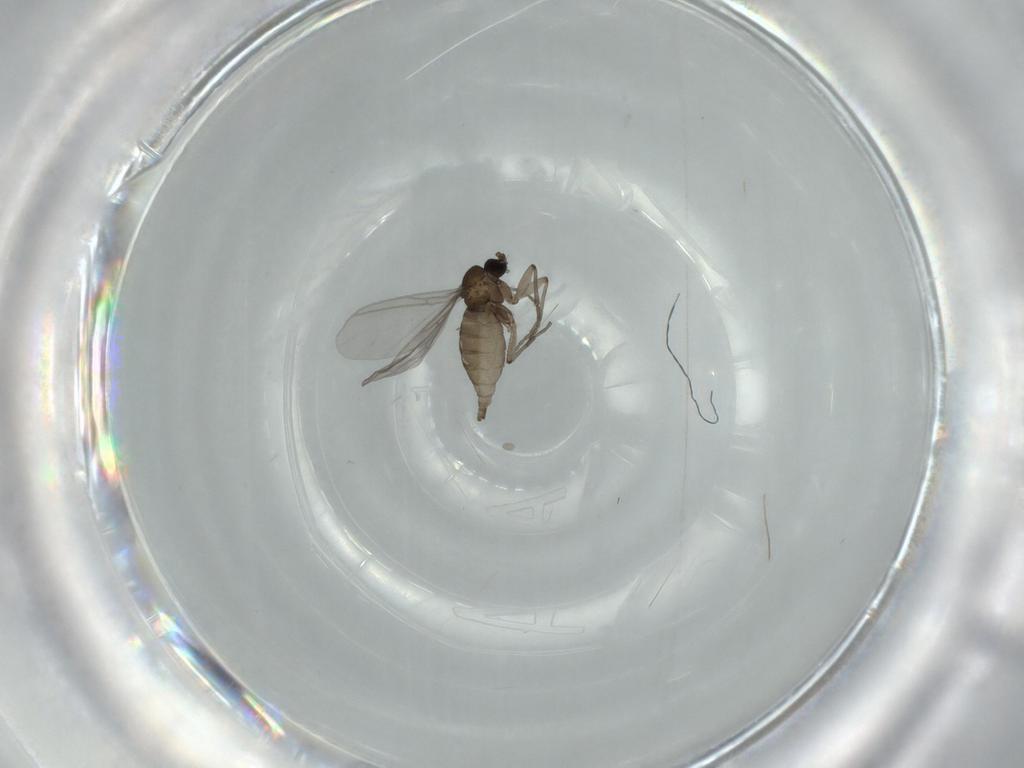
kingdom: Animalia
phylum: Arthropoda
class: Insecta
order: Diptera
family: Sciaridae
